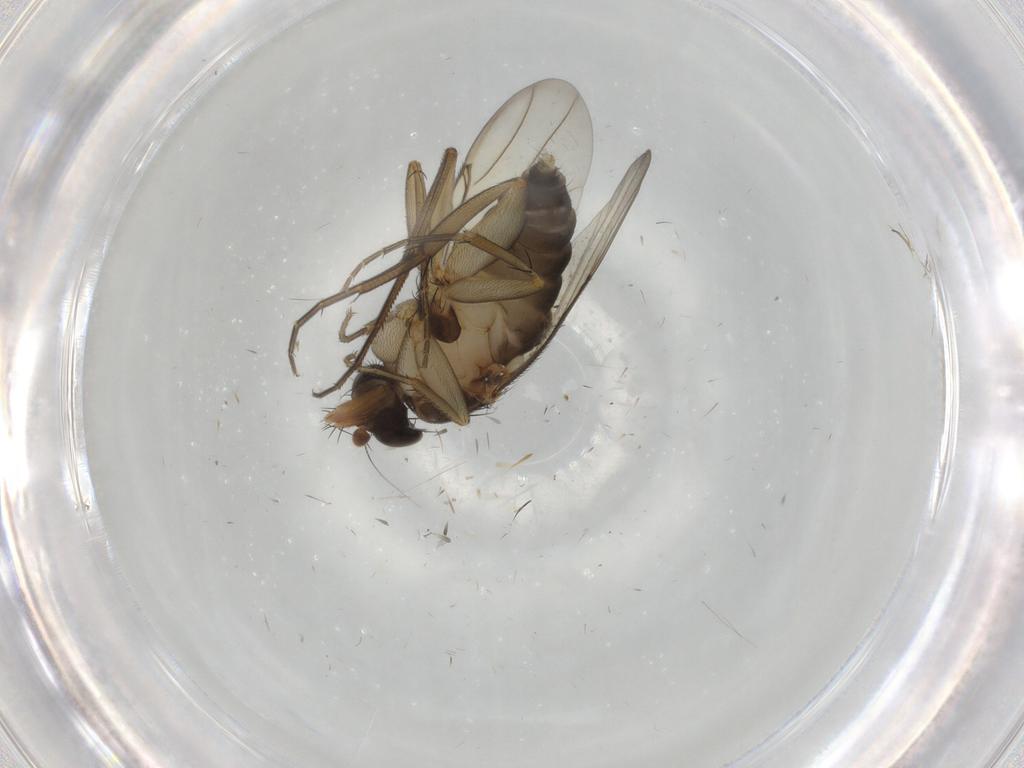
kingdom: Animalia
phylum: Arthropoda
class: Insecta
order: Diptera
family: Phoridae
